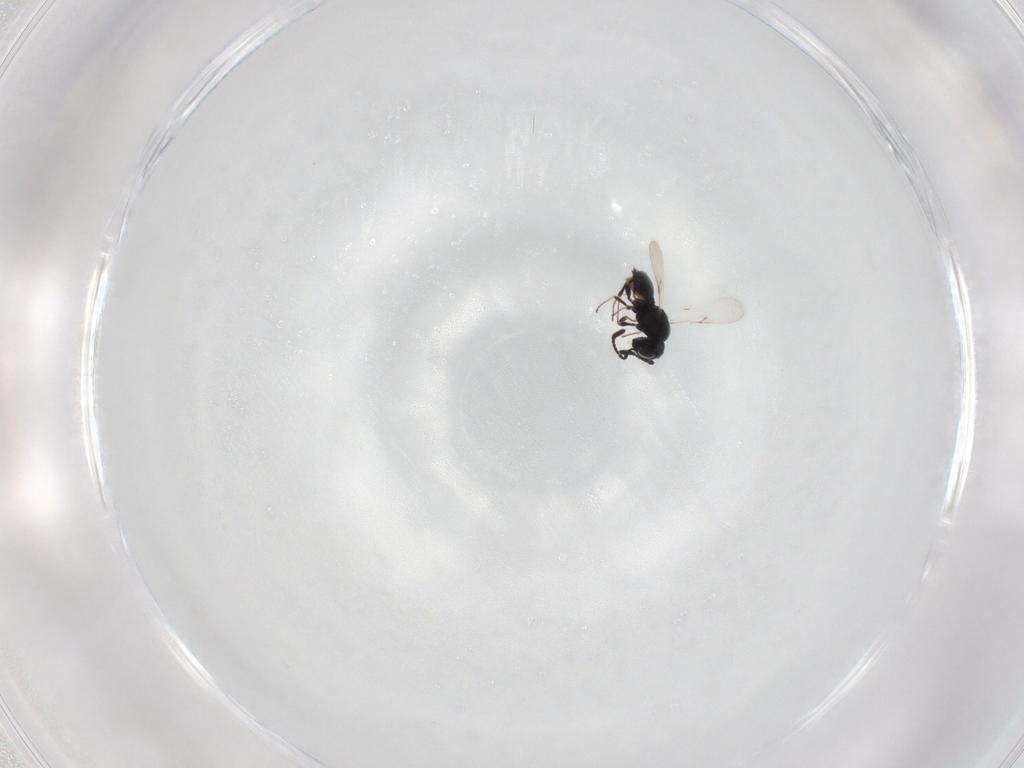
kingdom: Animalia
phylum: Arthropoda
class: Insecta
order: Hymenoptera
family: Scelionidae
